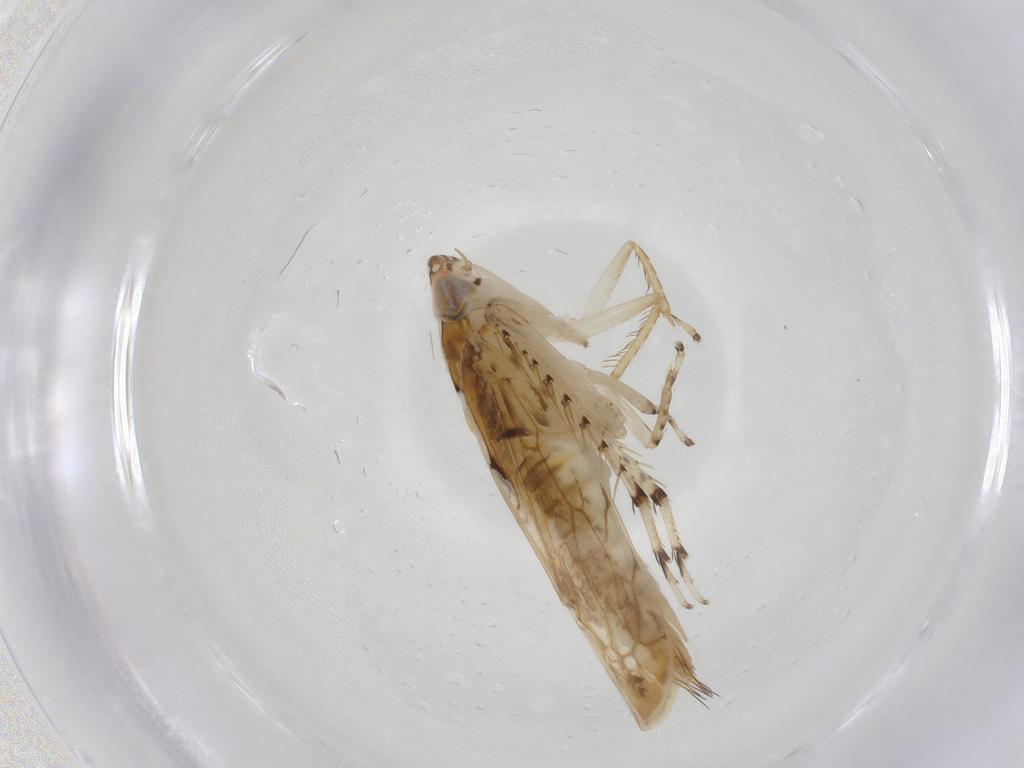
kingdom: Animalia
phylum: Arthropoda
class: Insecta
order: Hemiptera
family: Cicadellidae
